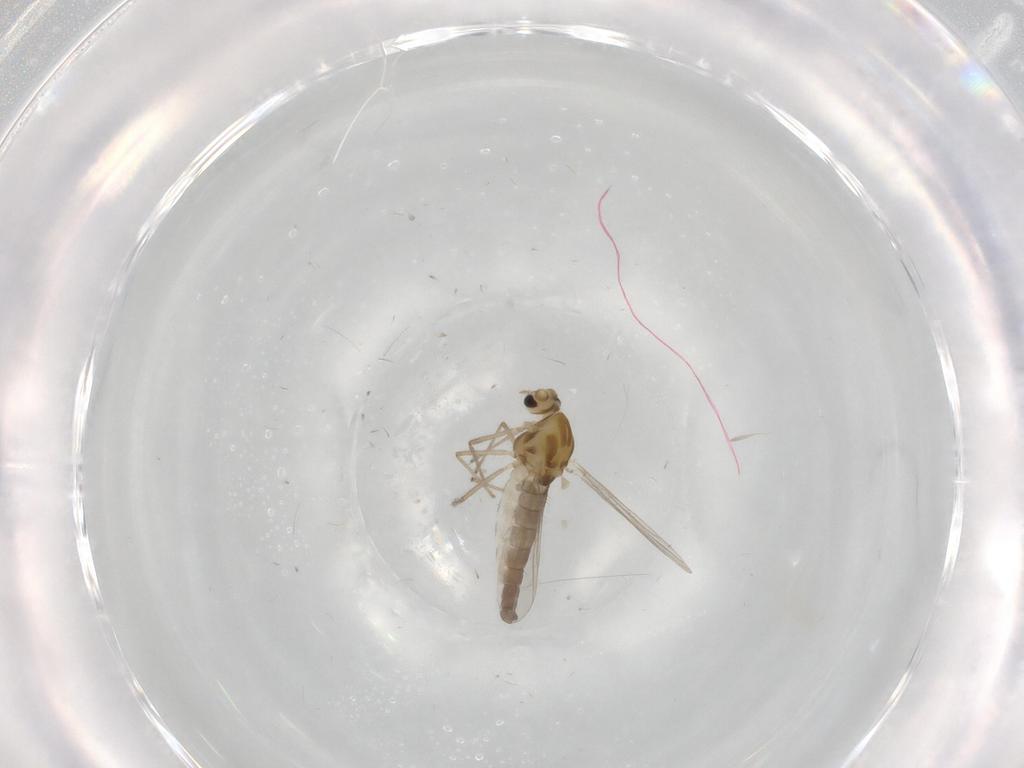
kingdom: Animalia
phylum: Arthropoda
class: Insecta
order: Diptera
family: Chironomidae
